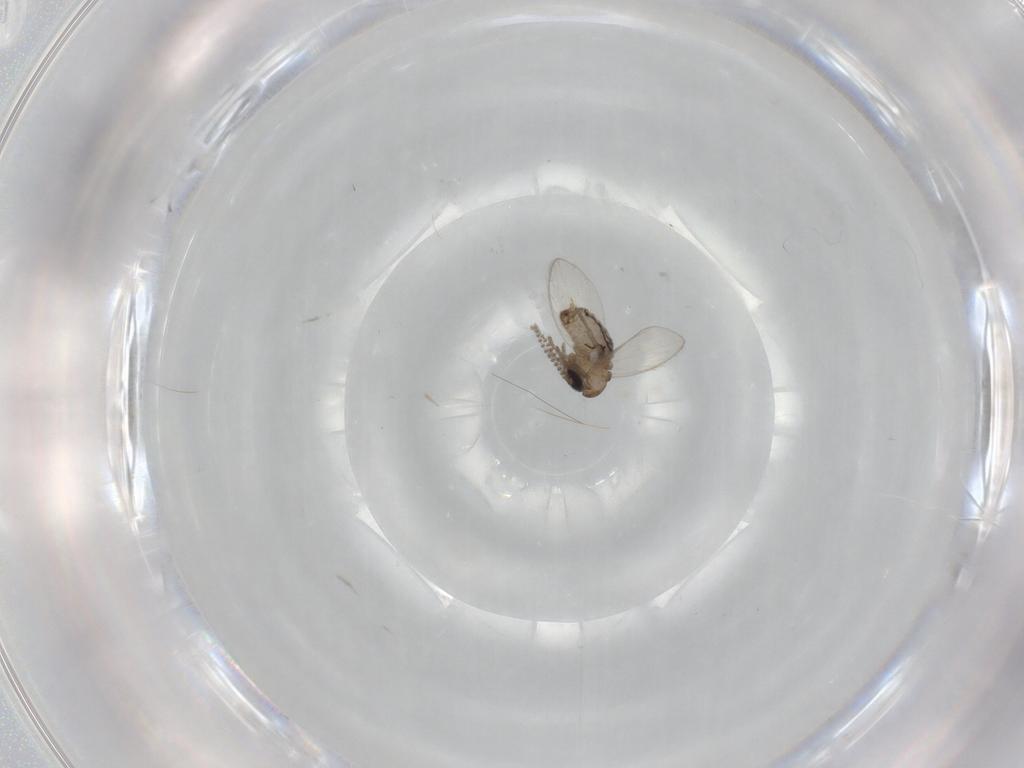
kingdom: Animalia
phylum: Arthropoda
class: Insecta
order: Diptera
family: Psychodidae
